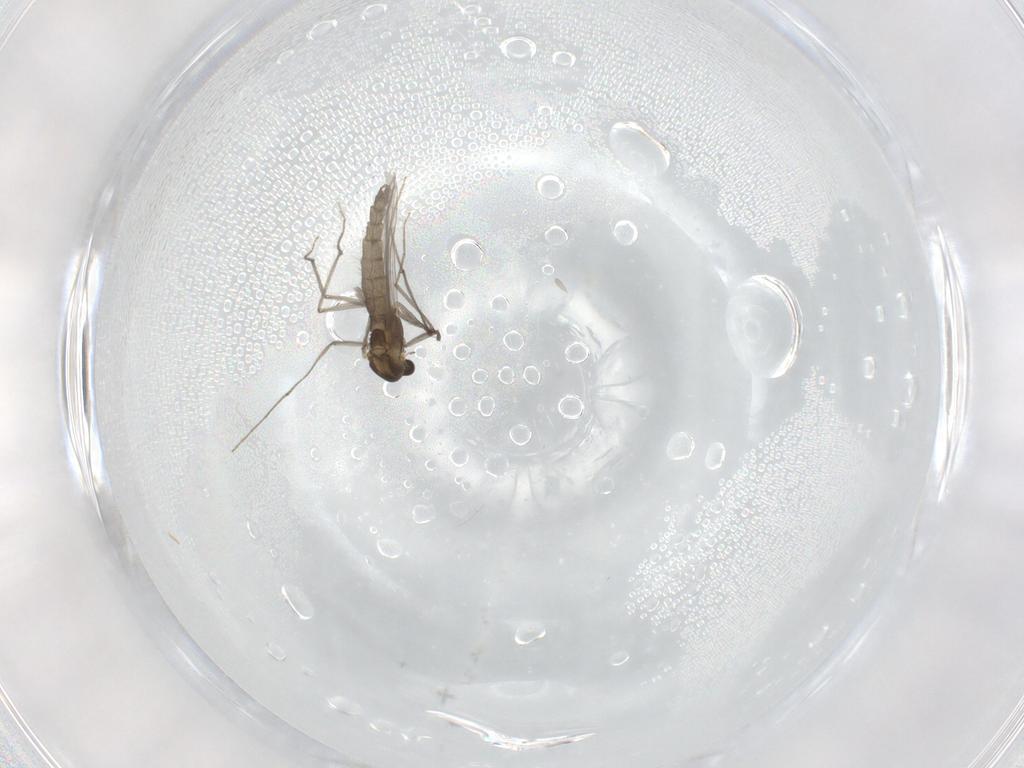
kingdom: Animalia
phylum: Arthropoda
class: Insecta
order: Diptera
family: Chironomidae
